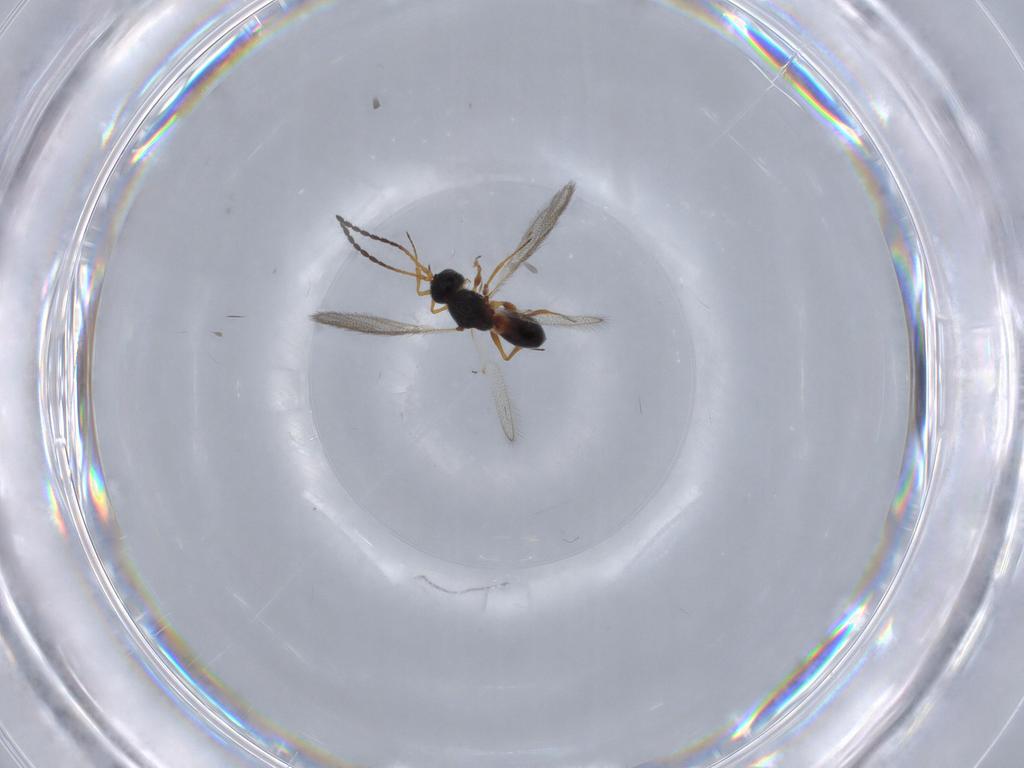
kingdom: Animalia
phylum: Arthropoda
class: Insecta
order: Hymenoptera
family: Figitidae
